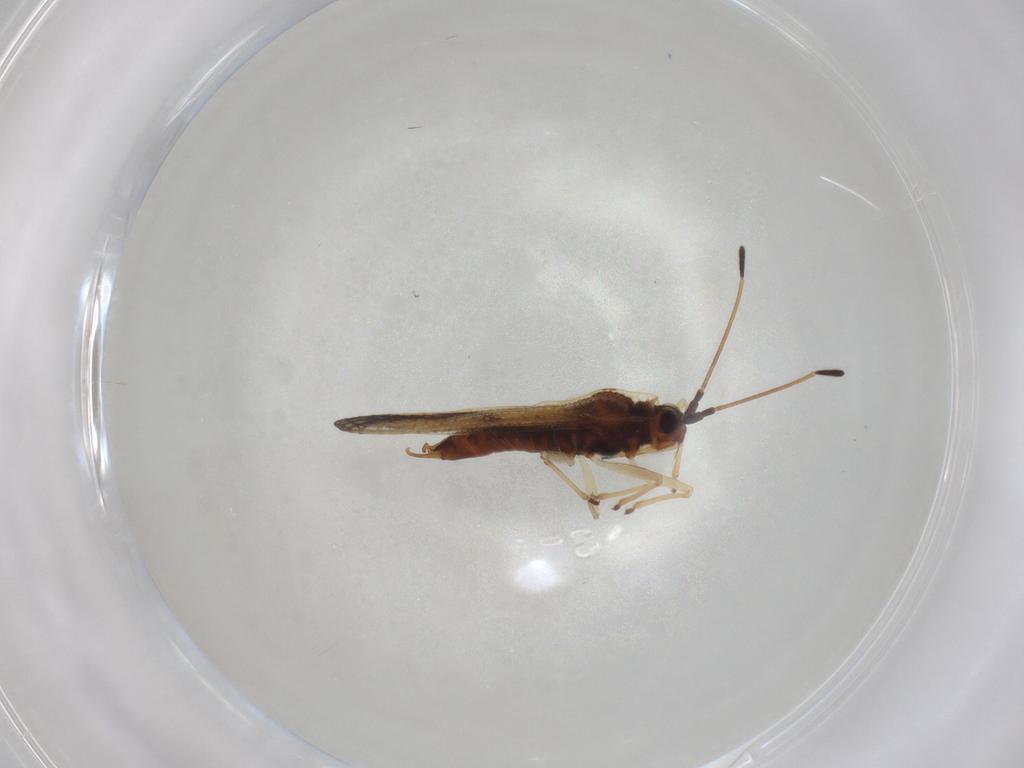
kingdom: Animalia
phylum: Arthropoda
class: Insecta
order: Hemiptera
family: Tingidae
